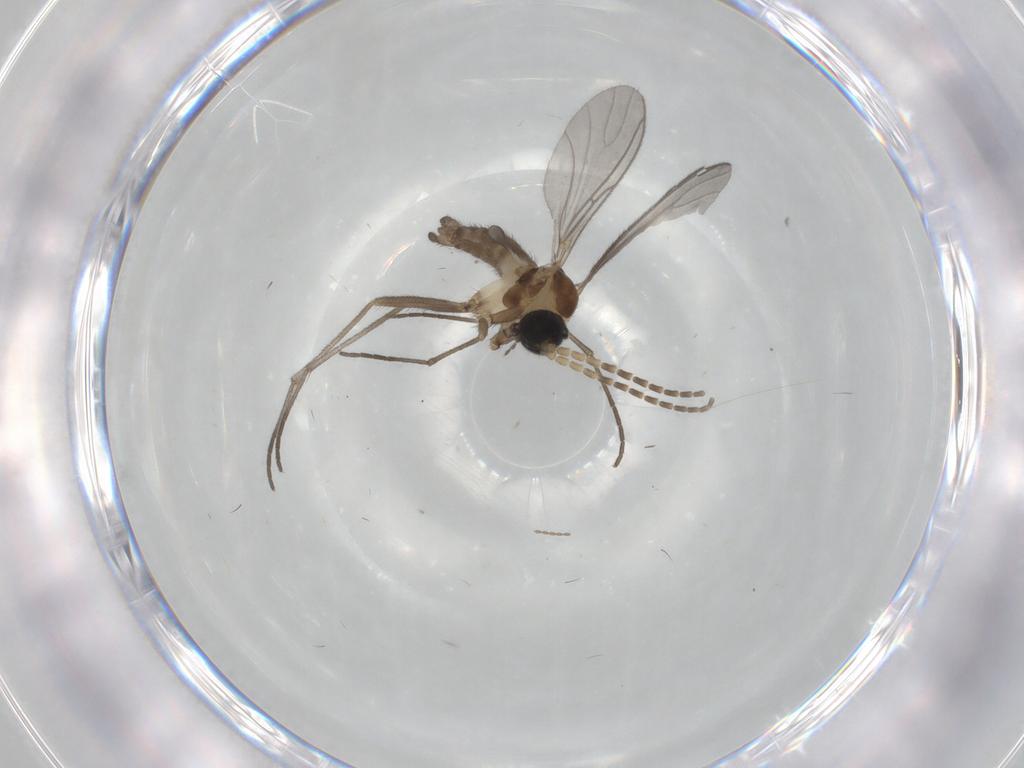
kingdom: Animalia
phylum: Arthropoda
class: Insecta
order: Diptera
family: Sciaridae
